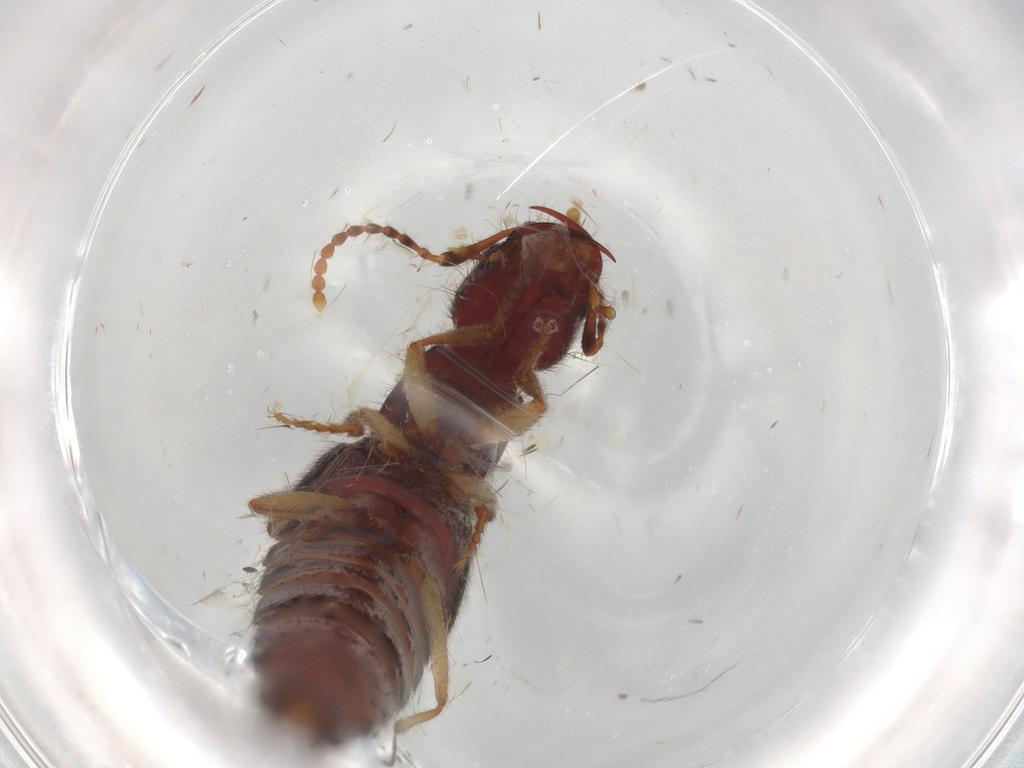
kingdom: Animalia
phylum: Arthropoda
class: Insecta
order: Coleoptera
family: Staphylinidae
